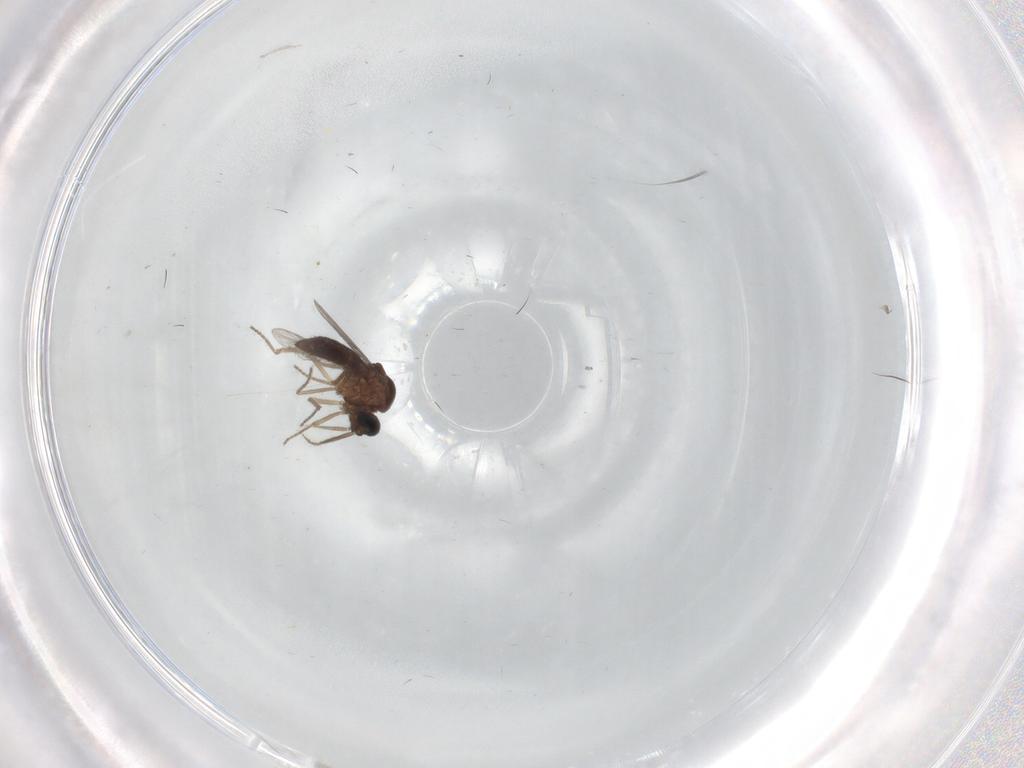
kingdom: Animalia
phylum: Arthropoda
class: Insecta
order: Diptera
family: Ceratopogonidae
